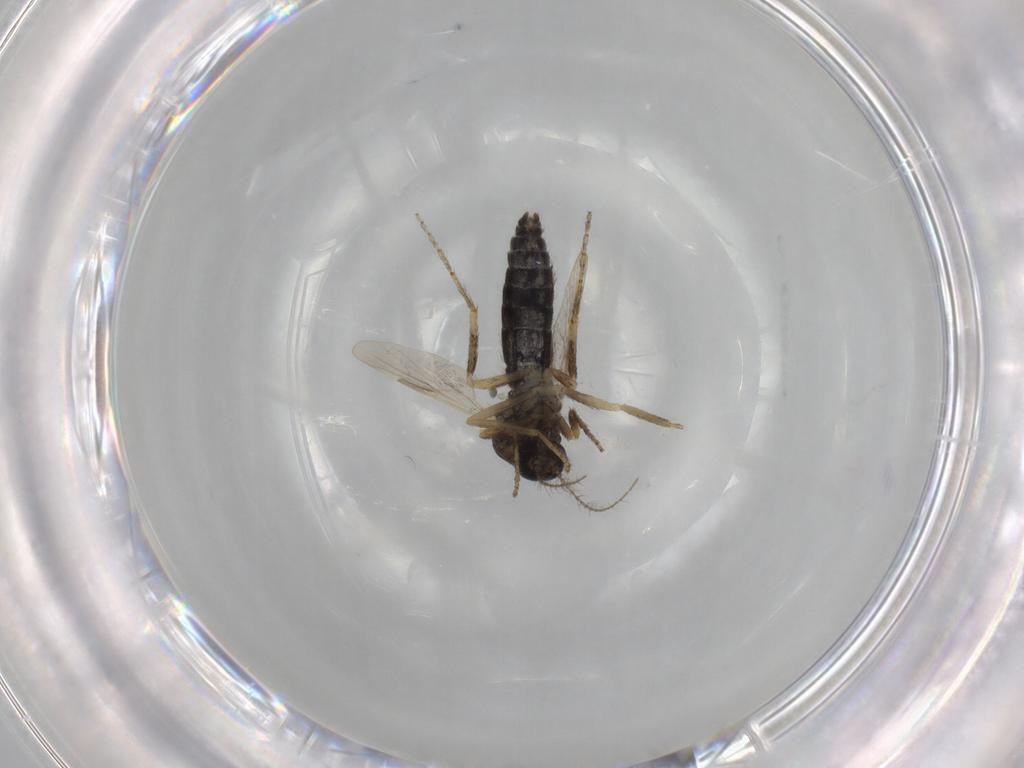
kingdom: Animalia
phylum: Arthropoda
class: Insecta
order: Diptera
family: Cecidomyiidae
